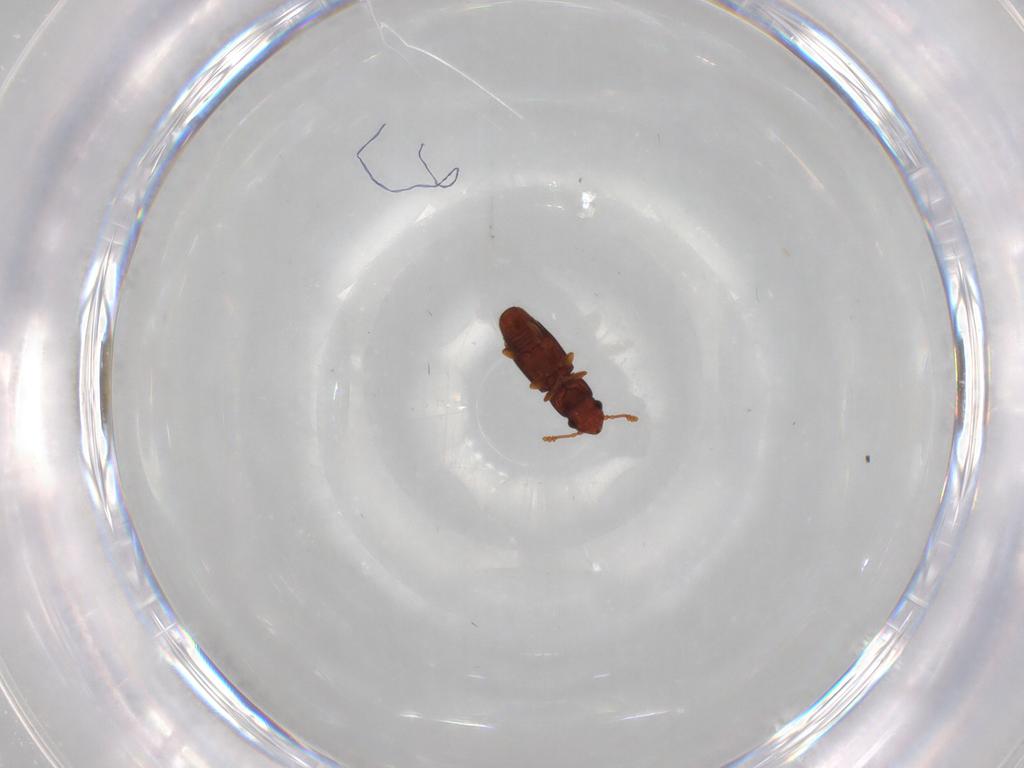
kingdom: Animalia
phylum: Arthropoda
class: Insecta
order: Coleoptera
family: Smicripidae
